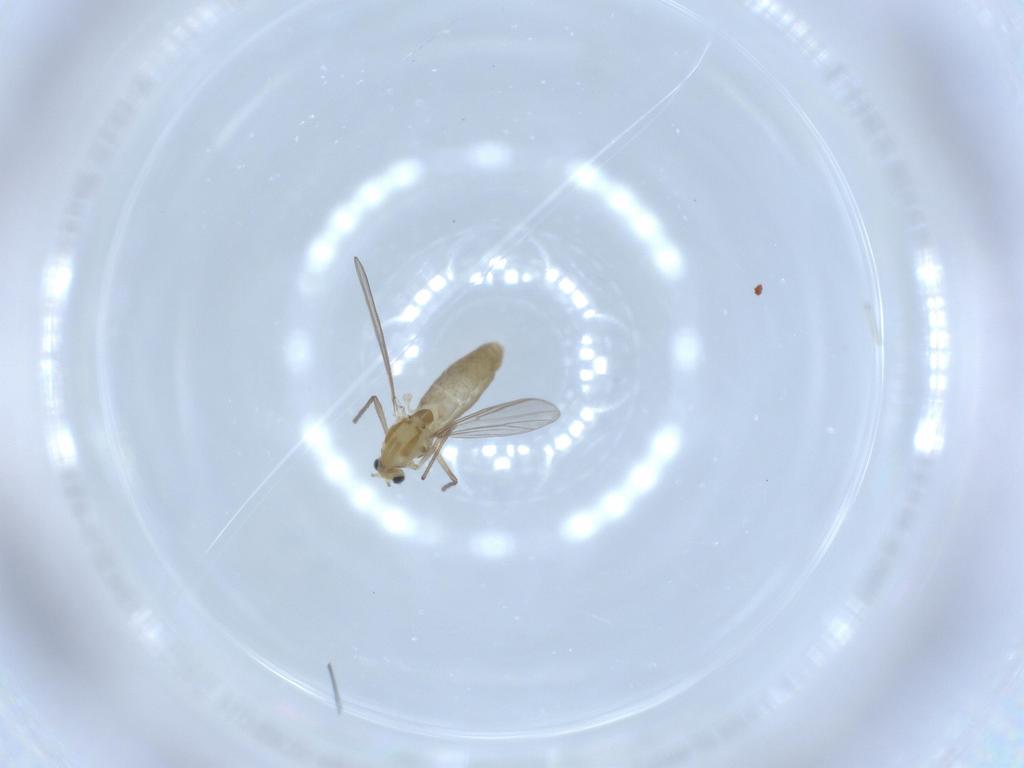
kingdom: Animalia
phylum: Arthropoda
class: Insecta
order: Diptera
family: Chironomidae
